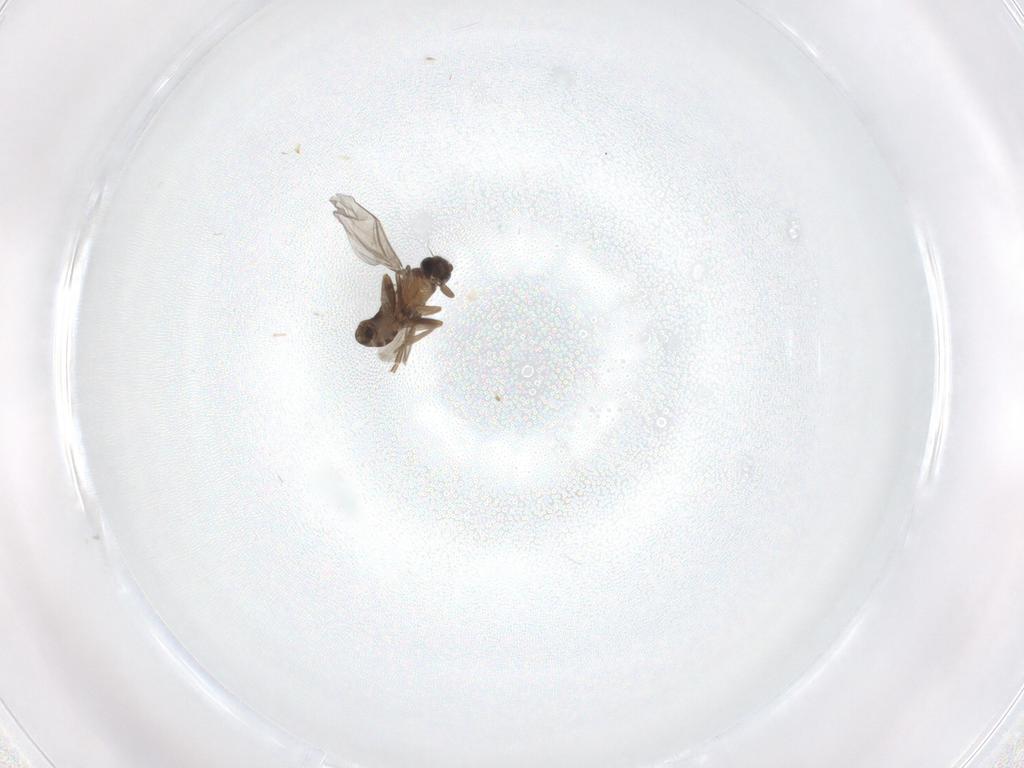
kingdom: Animalia
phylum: Arthropoda
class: Insecta
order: Diptera
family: Chironomidae
